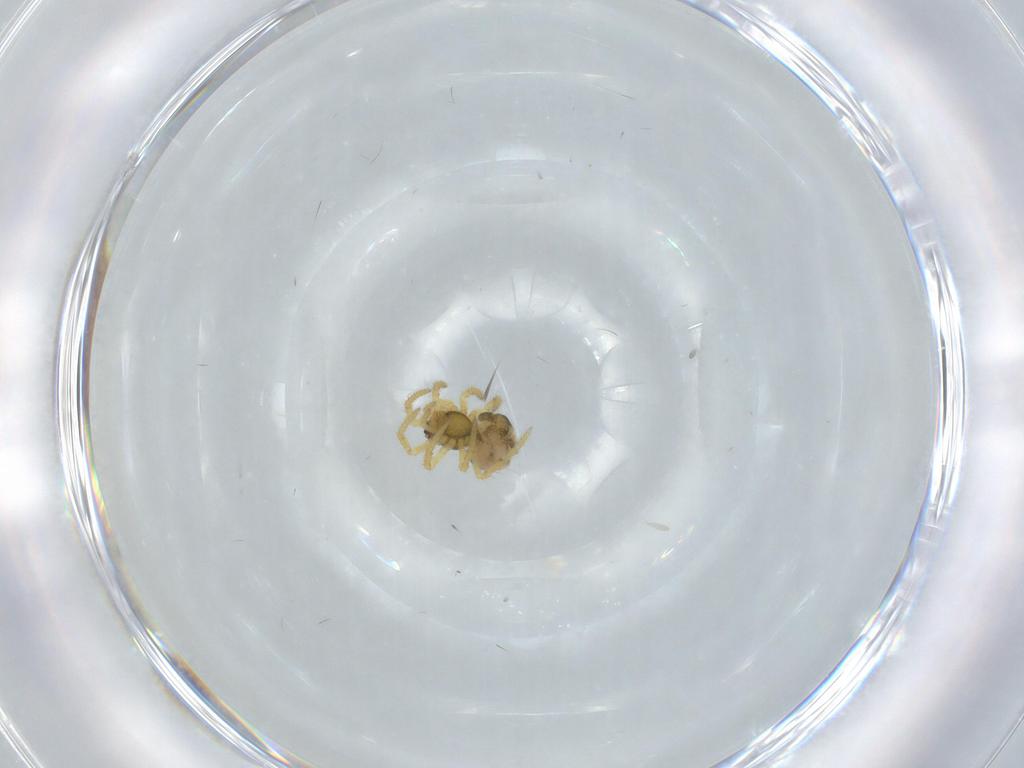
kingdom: Animalia
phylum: Arthropoda
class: Arachnida
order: Araneae
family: Theridiidae
